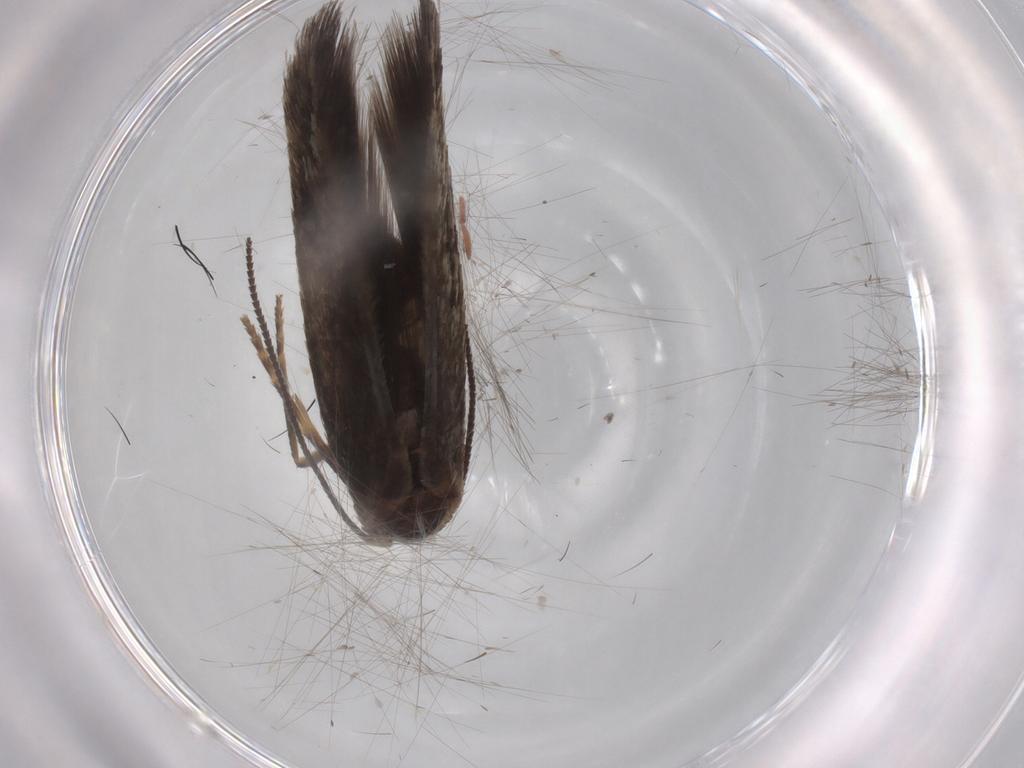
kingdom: Animalia
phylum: Arthropoda
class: Insecta
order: Lepidoptera
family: Nepticulidae
